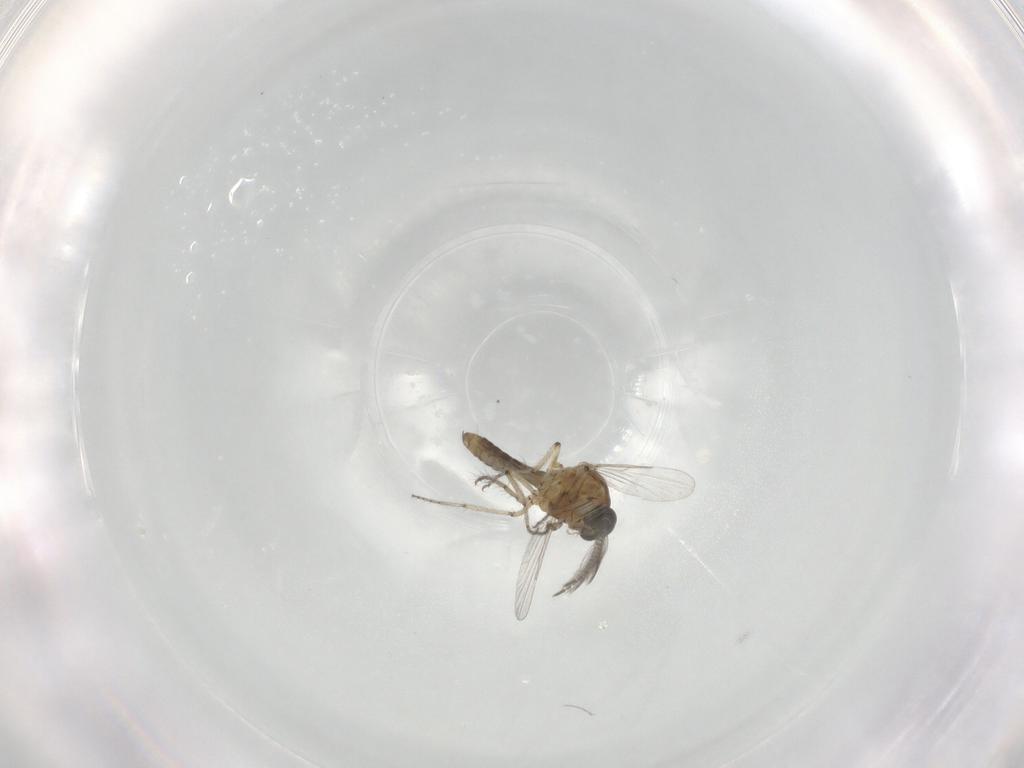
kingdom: Animalia
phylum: Arthropoda
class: Insecta
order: Diptera
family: Ceratopogonidae
